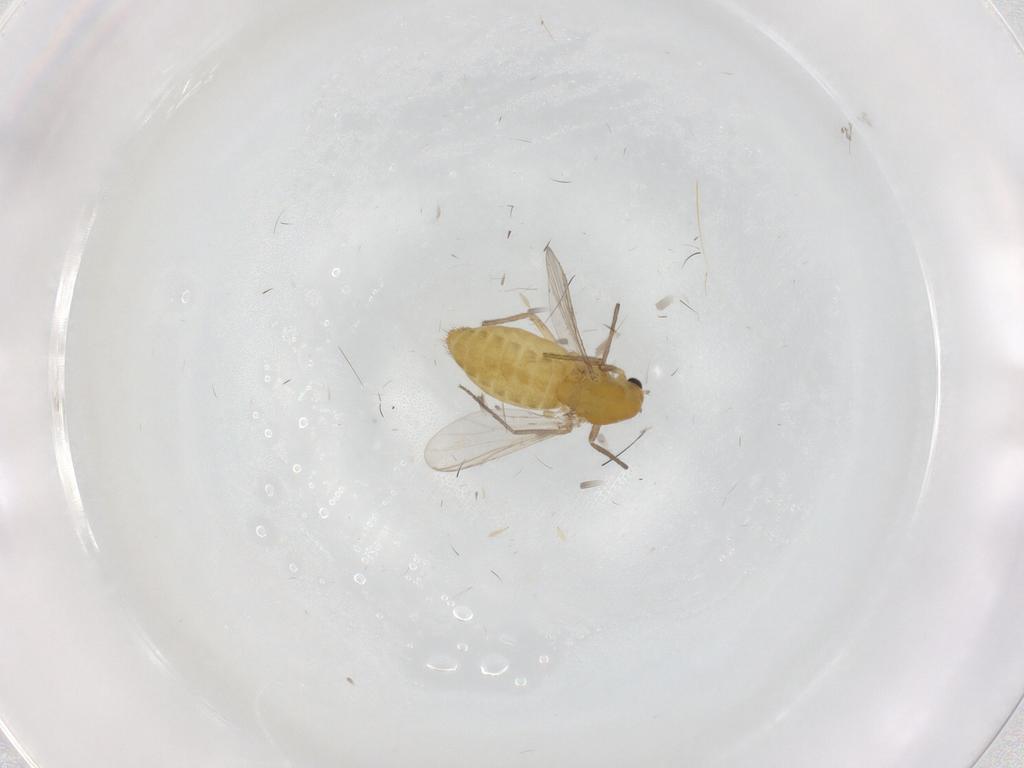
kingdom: Animalia
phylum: Arthropoda
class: Insecta
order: Diptera
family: Chironomidae
